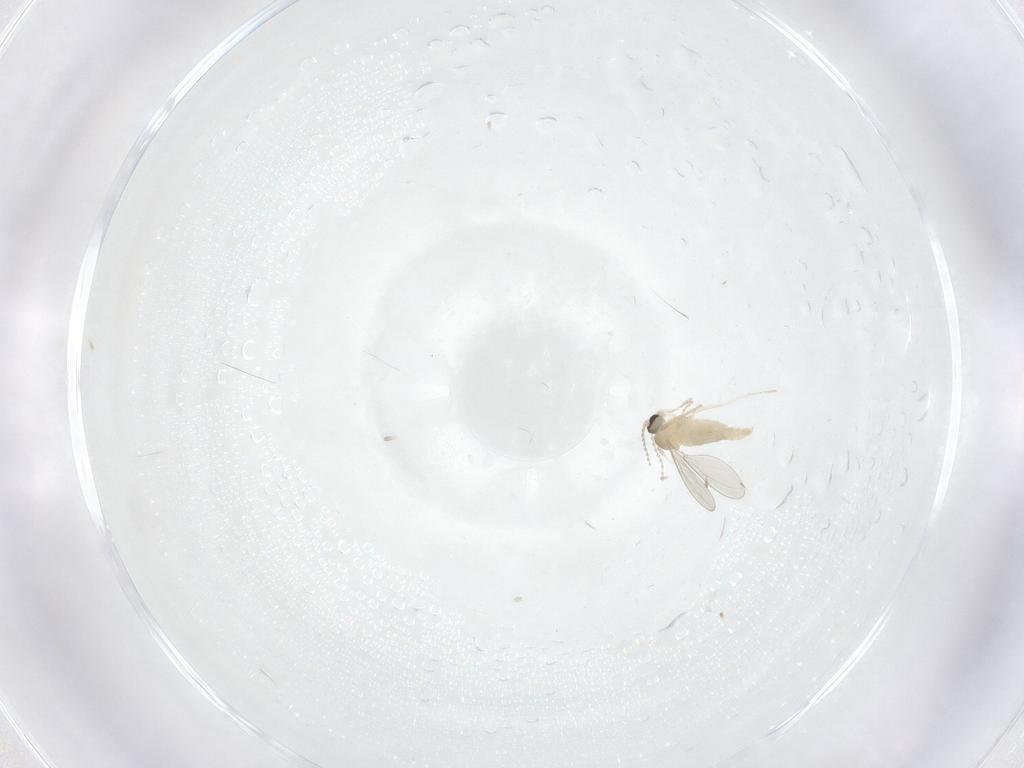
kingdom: Animalia
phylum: Arthropoda
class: Insecta
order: Diptera
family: Cecidomyiidae
